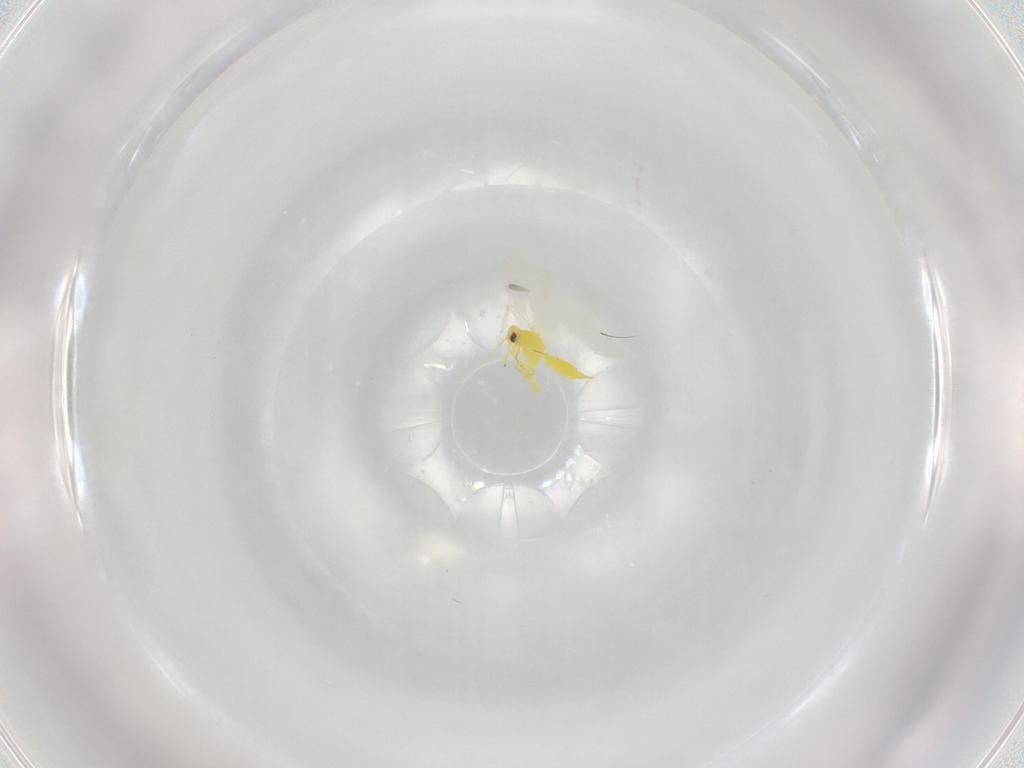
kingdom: Animalia
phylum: Arthropoda
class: Insecta
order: Hemiptera
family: Aleyrodidae
